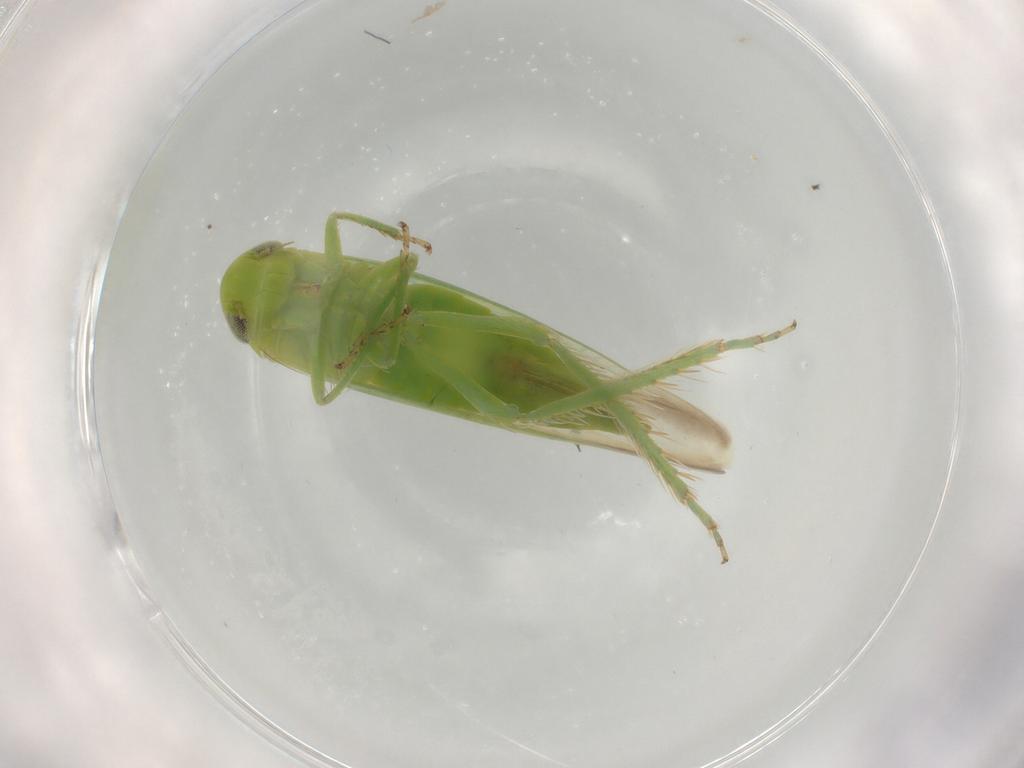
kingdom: Animalia
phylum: Arthropoda
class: Insecta
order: Hemiptera
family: Cicadellidae
